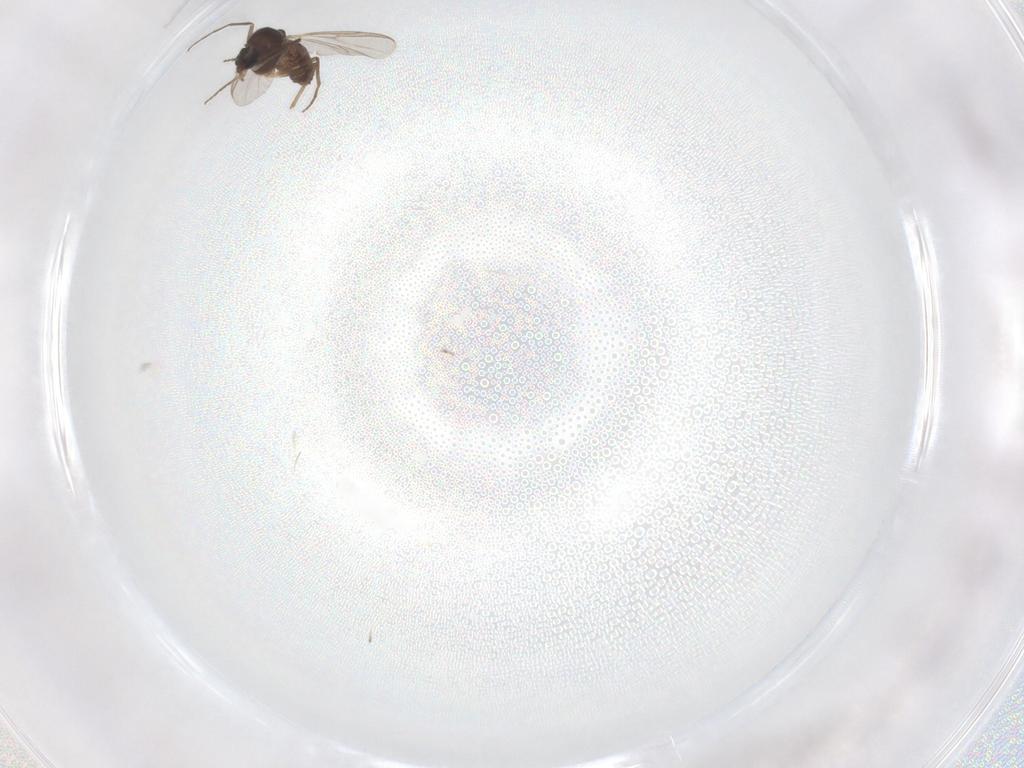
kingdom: Animalia
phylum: Arthropoda
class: Insecta
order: Diptera
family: Chironomidae
